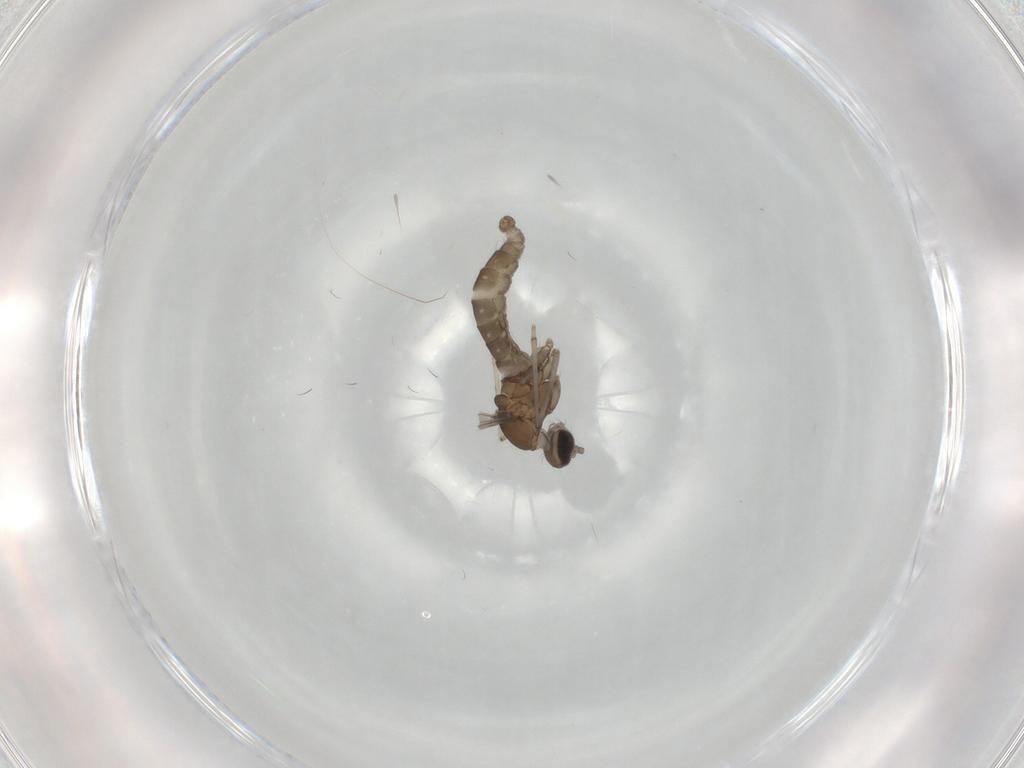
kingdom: Animalia
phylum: Arthropoda
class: Insecta
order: Diptera
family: Cecidomyiidae
